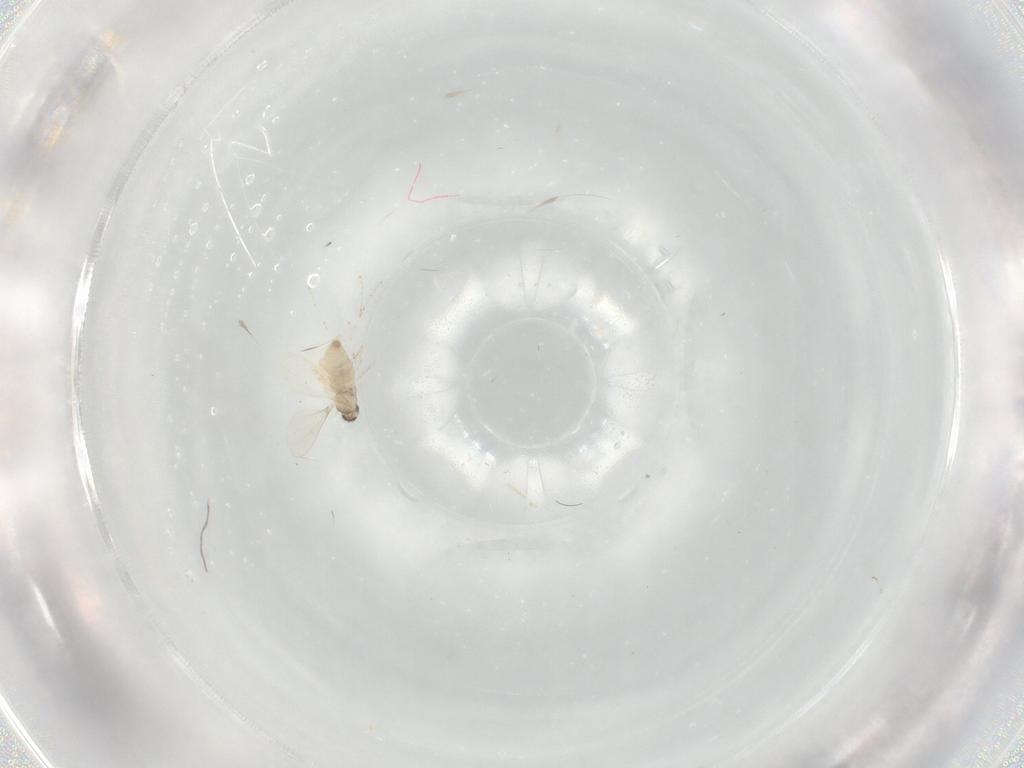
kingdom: Animalia
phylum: Arthropoda
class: Insecta
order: Diptera
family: Cecidomyiidae
